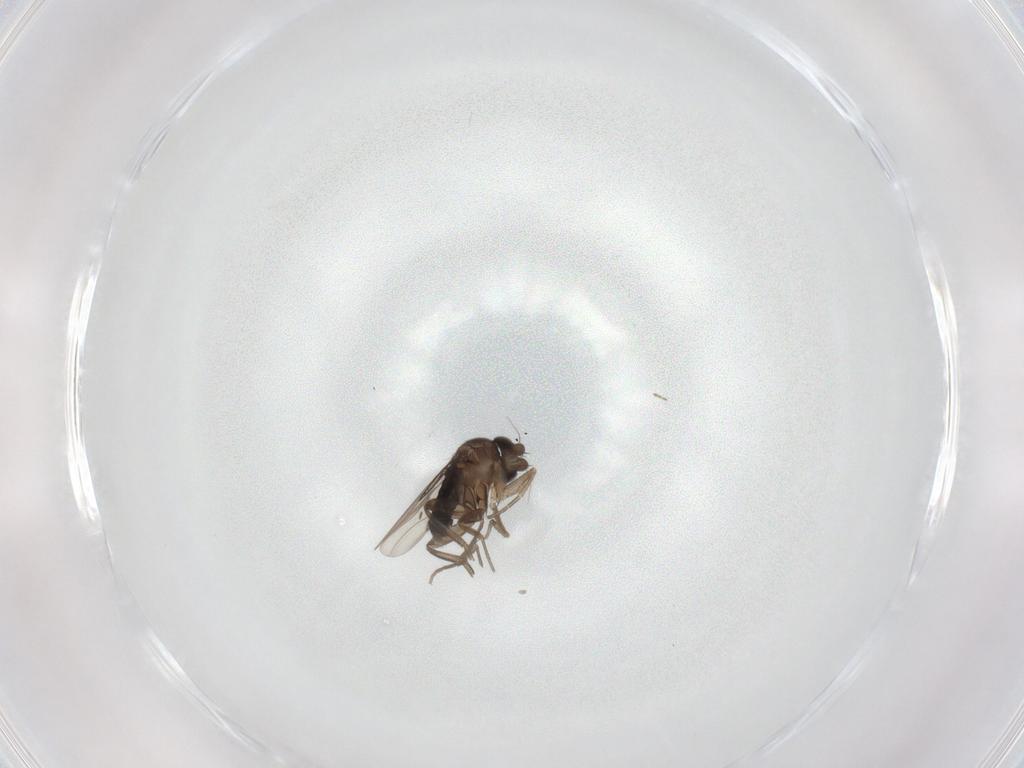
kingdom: Animalia
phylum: Arthropoda
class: Insecta
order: Diptera
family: Phoridae
